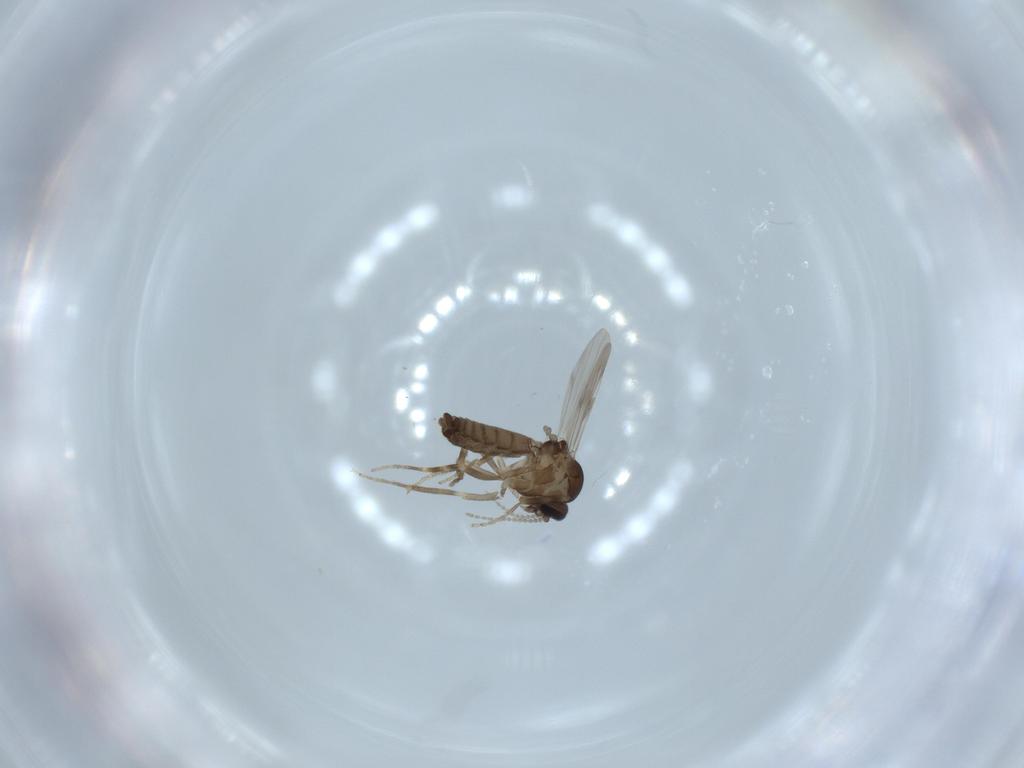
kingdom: Animalia
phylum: Arthropoda
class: Insecta
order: Diptera
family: Ceratopogonidae
